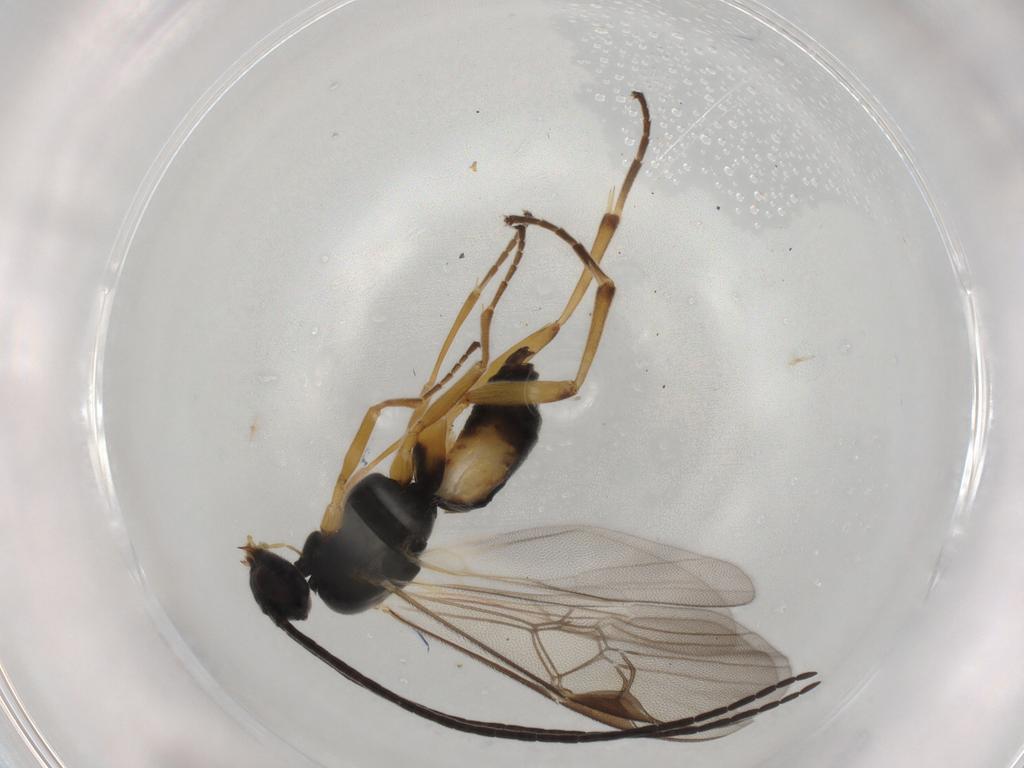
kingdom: Animalia
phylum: Arthropoda
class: Insecta
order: Hymenoptera
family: Braconidae
